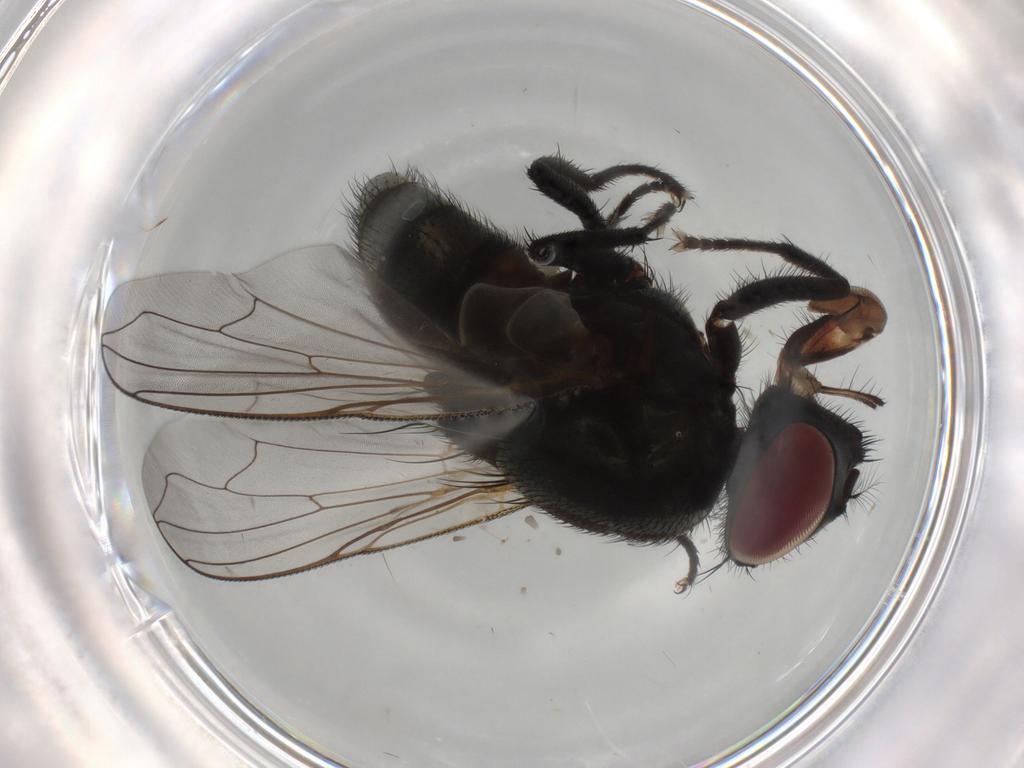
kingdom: Animalia
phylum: Arthropoda
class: Insecta
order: Diptera
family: Muscidae
